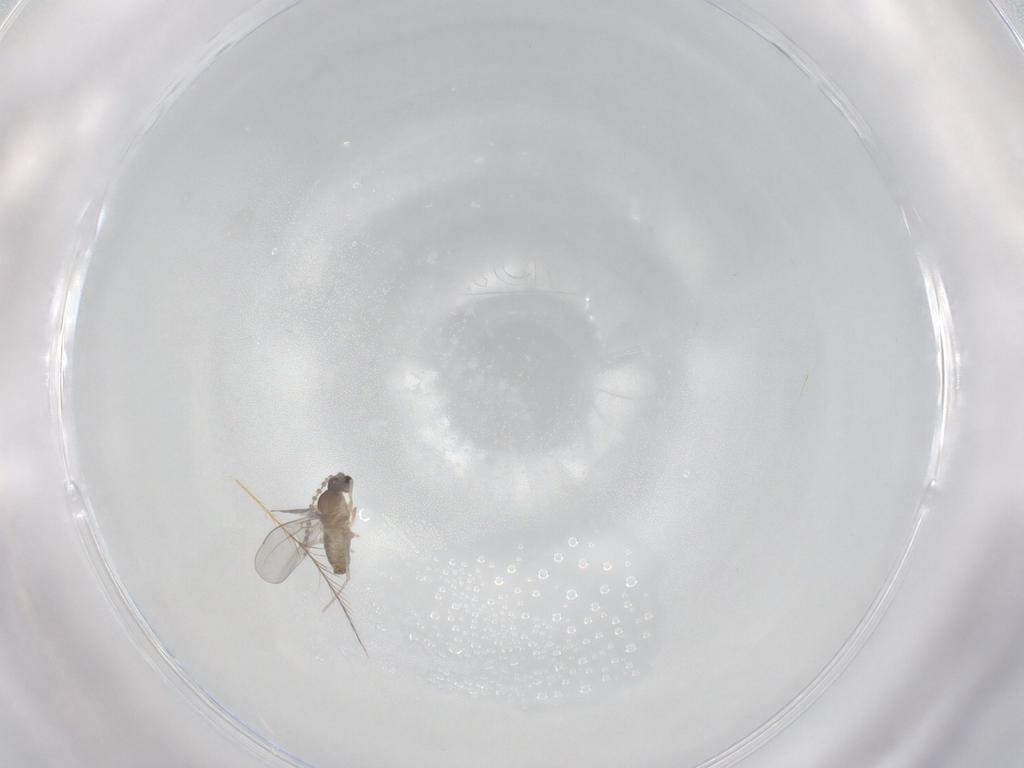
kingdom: Animalia
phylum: Arthropoda
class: Insecta
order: Diptera
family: Chironomidae
